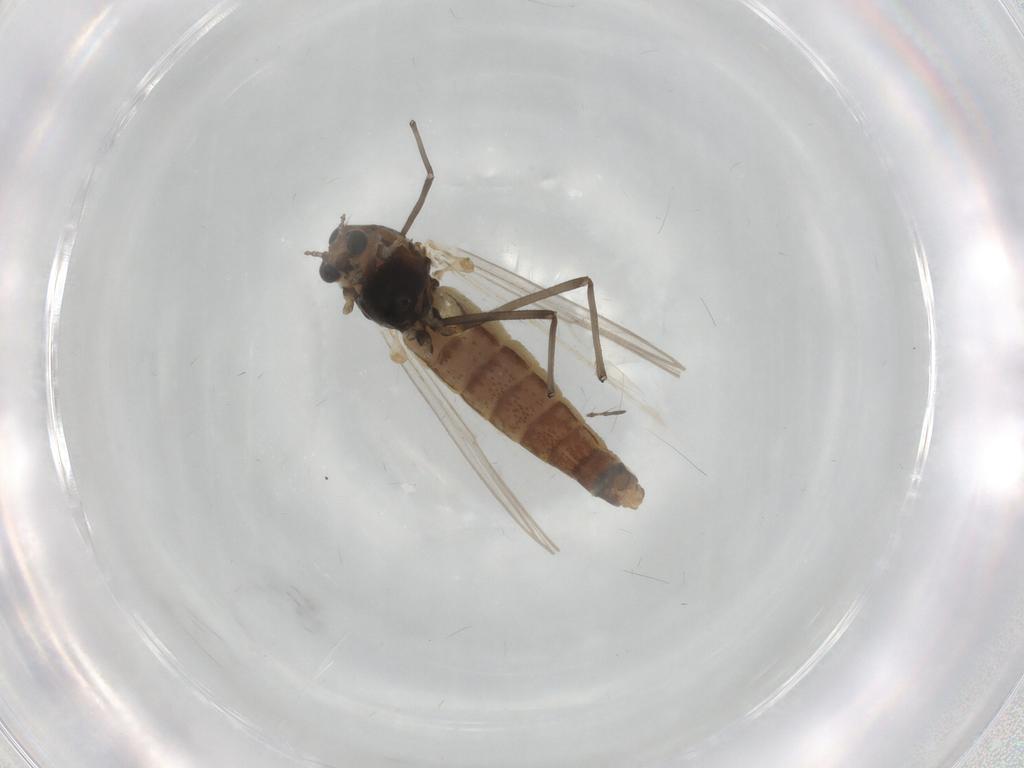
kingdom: Animalia
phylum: Arthropoda
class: Insecta
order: Diptera
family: Chironomidae
